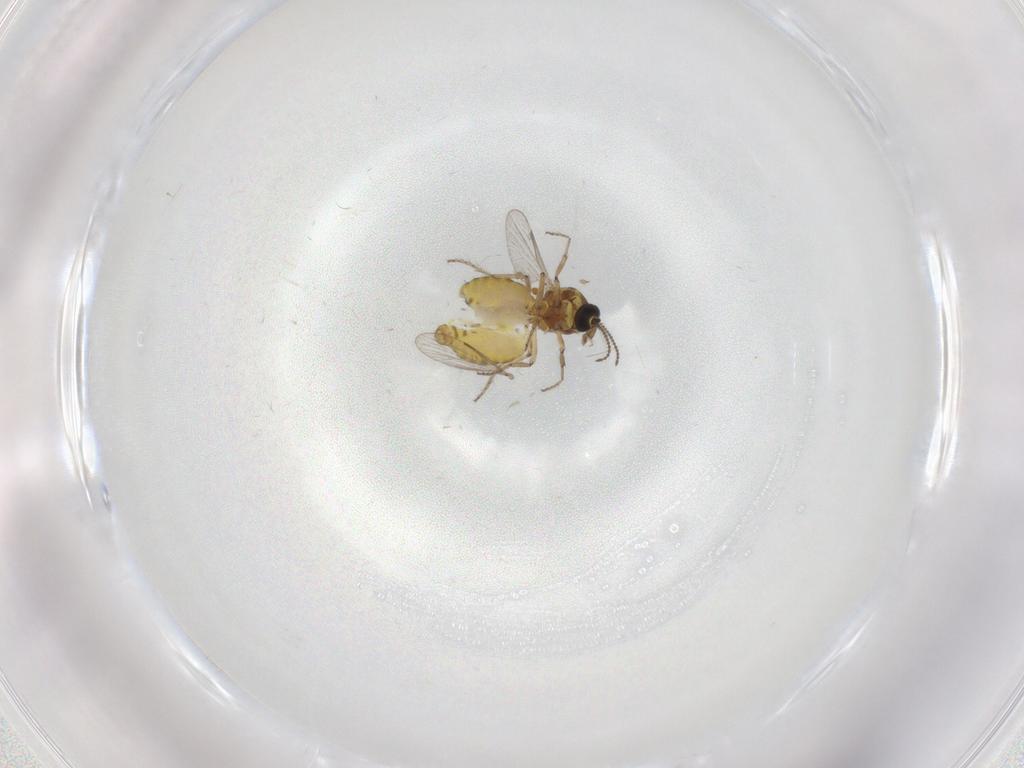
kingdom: Animalia
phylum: Arthropoda
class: Insecta
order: Diptera
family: Ceratopogonidae
